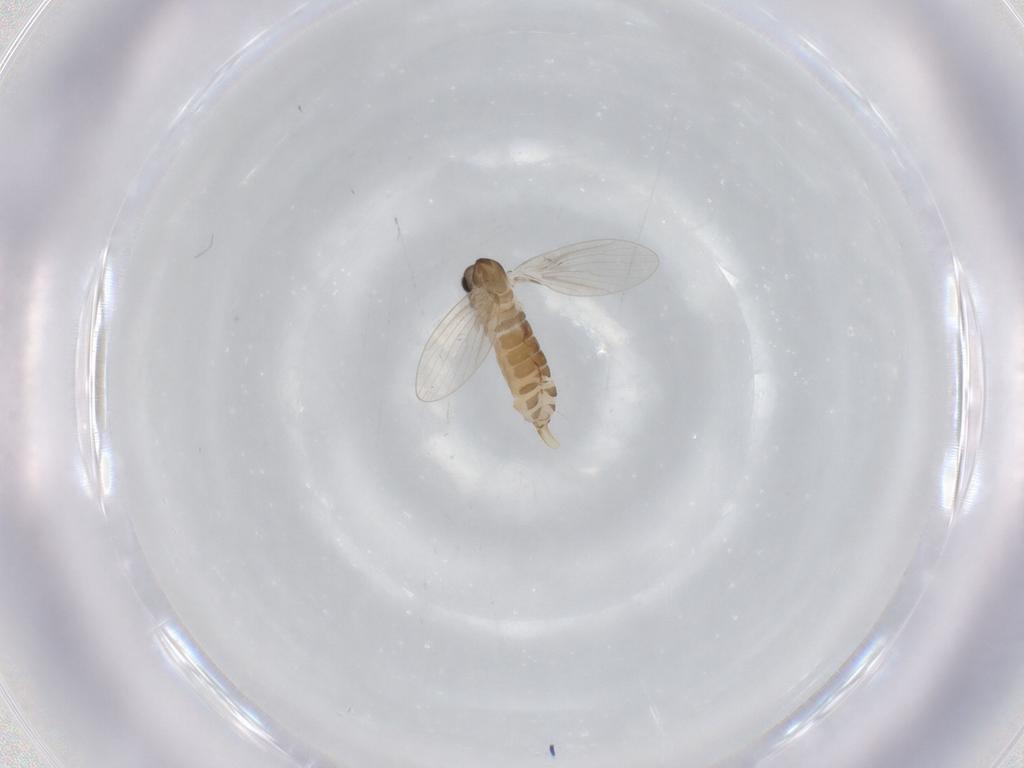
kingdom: Animalia
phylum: Arthropoda
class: Insecta
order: Diptera
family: Psychodidae
